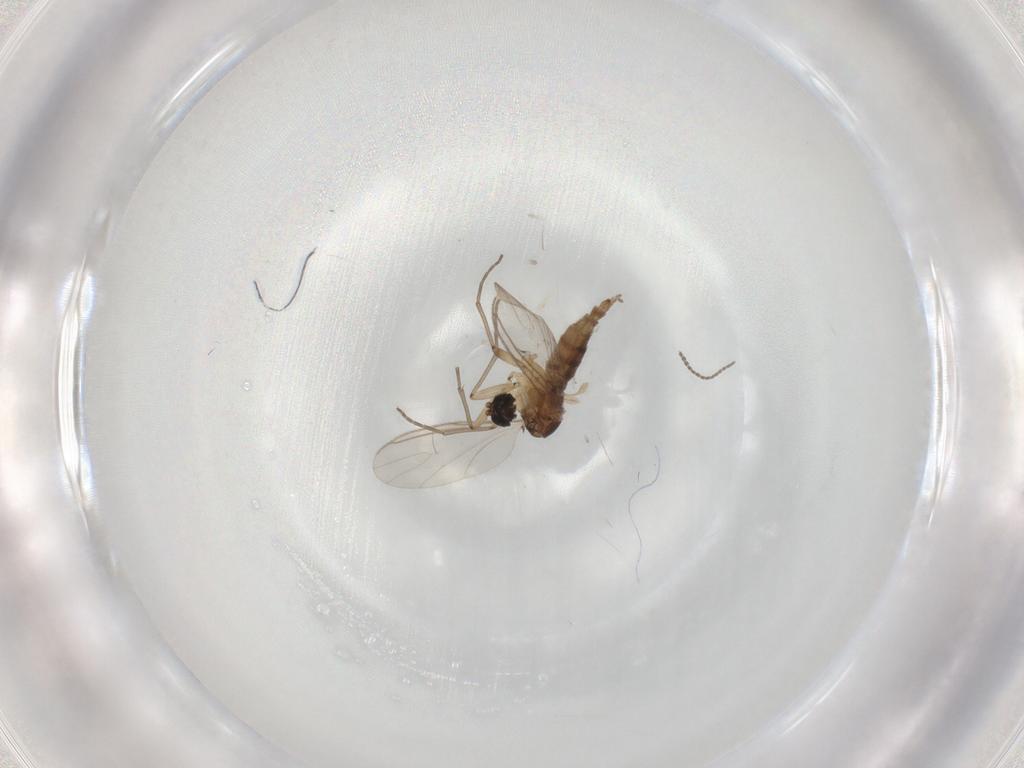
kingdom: Animalia
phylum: Arthropoda
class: Insecta
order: Diptera
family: Sciaridae
